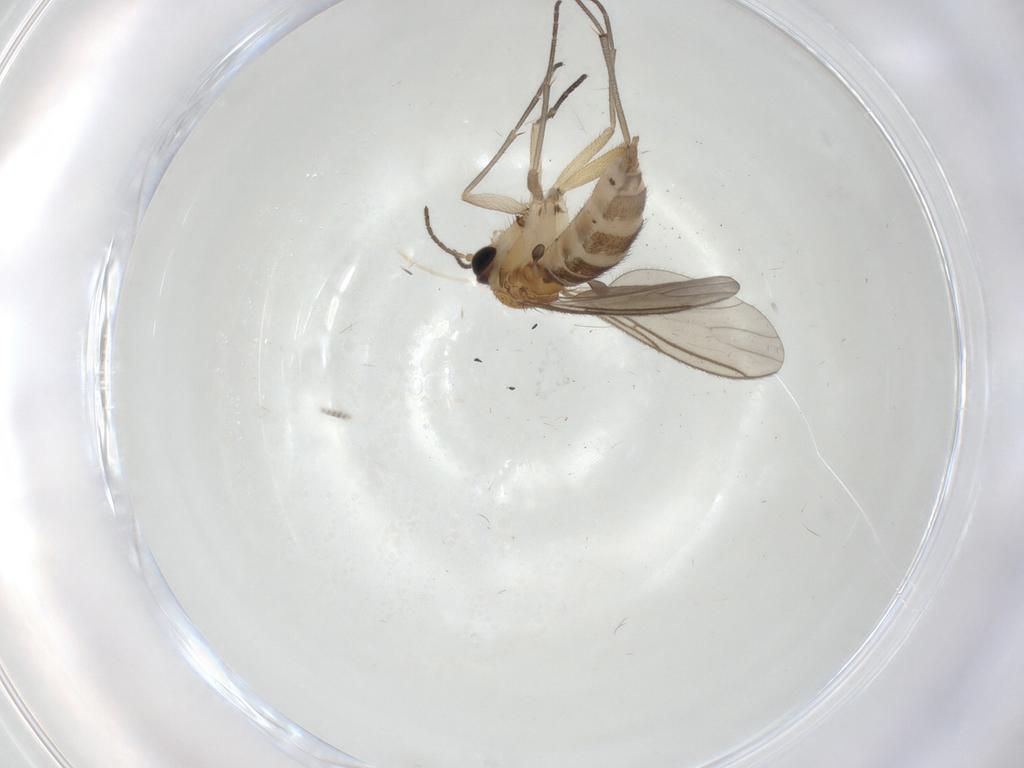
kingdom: Animalia
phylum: Arthropoda
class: Insecta
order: Diptera
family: Sciaridae
